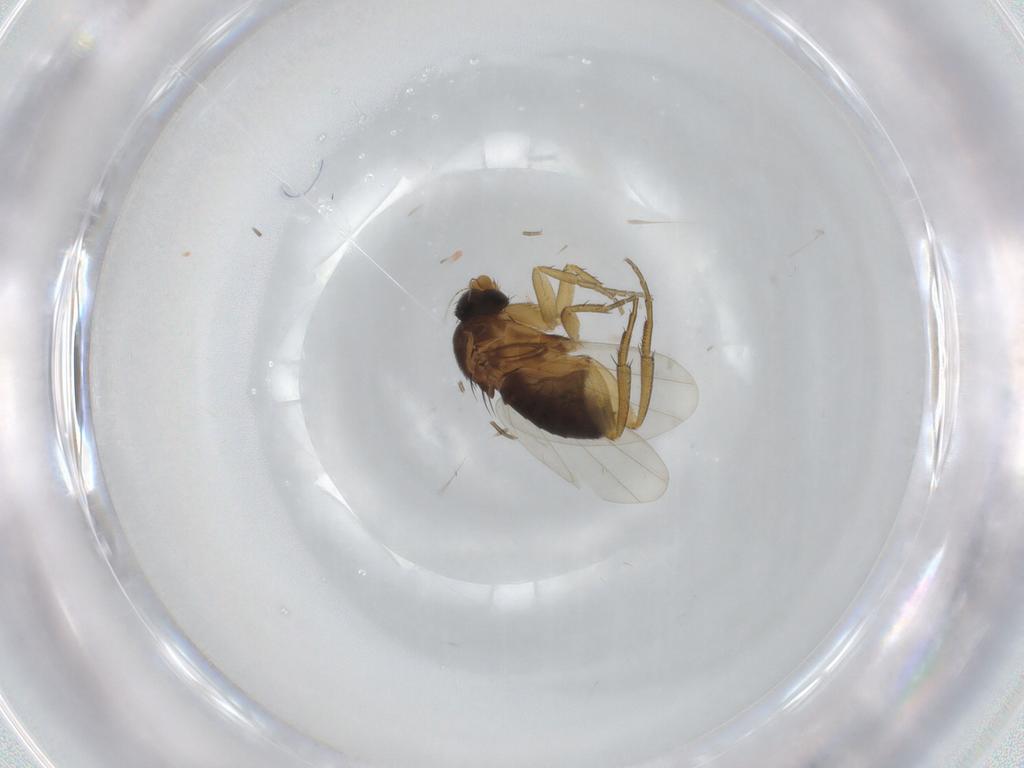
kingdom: Animalia
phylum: Arthropoda
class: Insecta
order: Diptera
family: Phoridae
